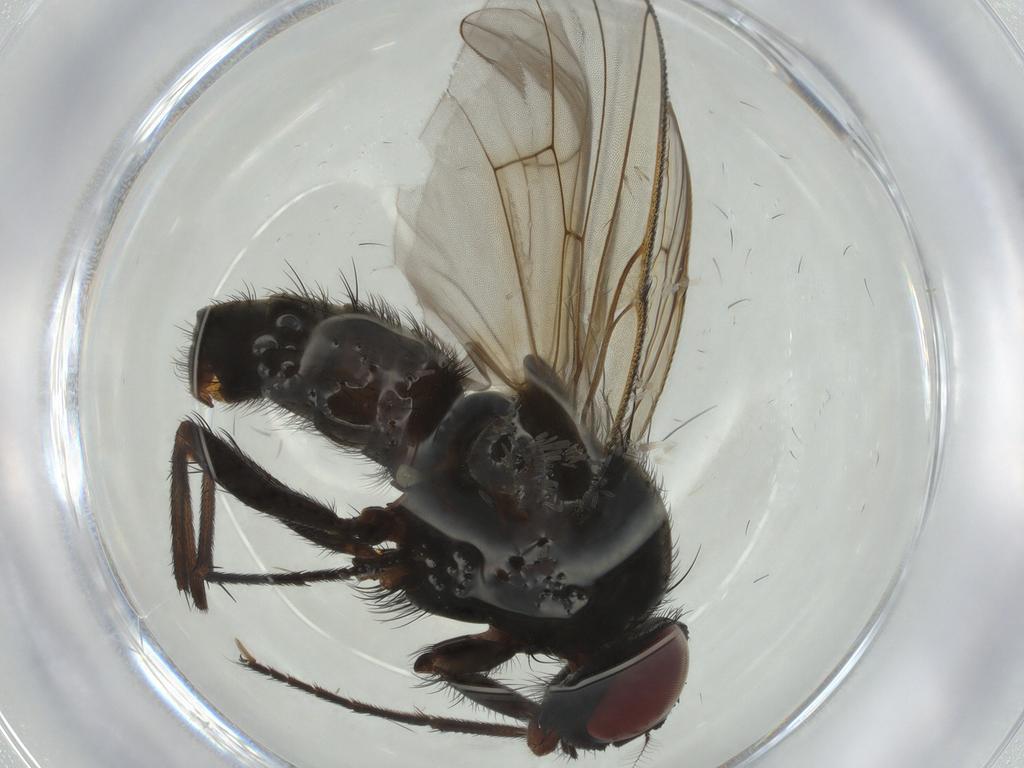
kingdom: Animalia
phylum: Arthropoda
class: Insecta
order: Diptera
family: Muscidae
